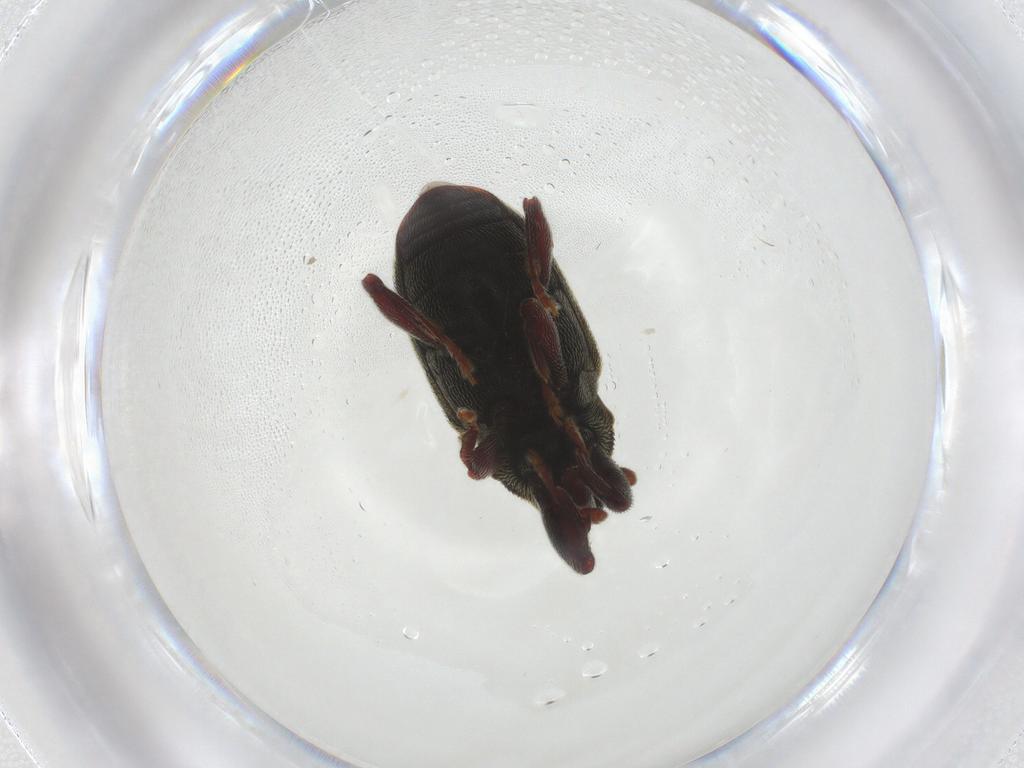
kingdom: Animalia
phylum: Arthropoda
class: Insecta
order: Coleoptera
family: Curculionidae
